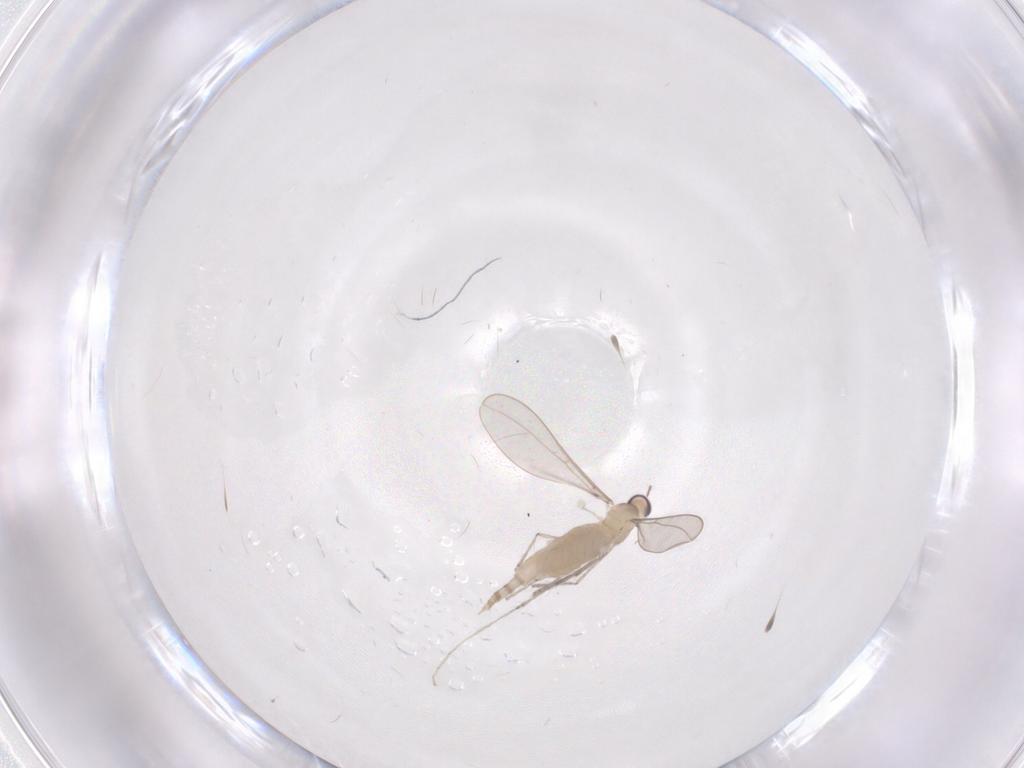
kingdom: Animalia
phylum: Arthropoda
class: Insecta
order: Diptera
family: Cecidomyiidae
